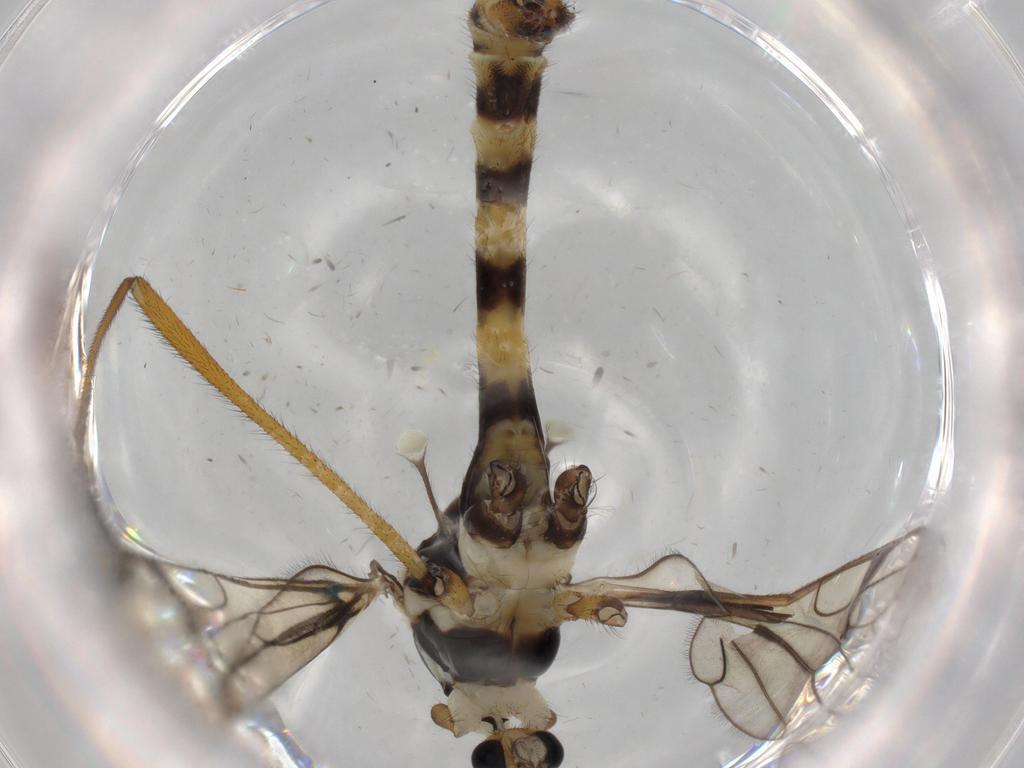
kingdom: Animalia
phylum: Arthropoda
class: Insecta
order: Diptera
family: Limoniidae
